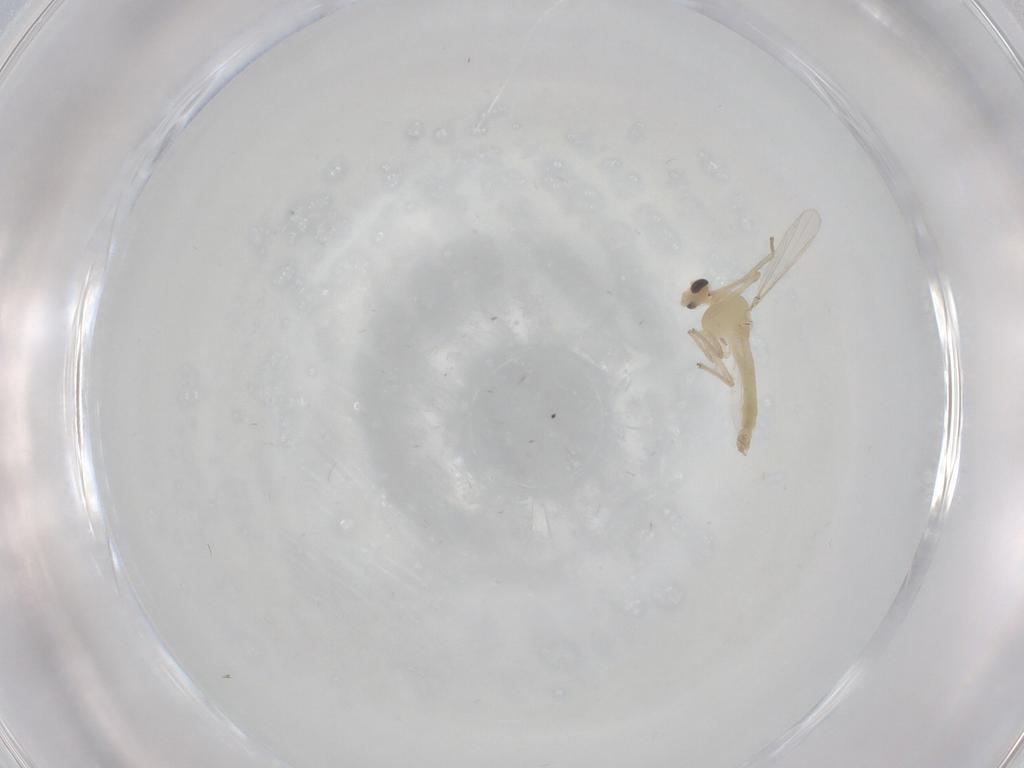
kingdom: Animalia
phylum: Arthropoda
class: Insecta
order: Diptera
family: Chironomidae
